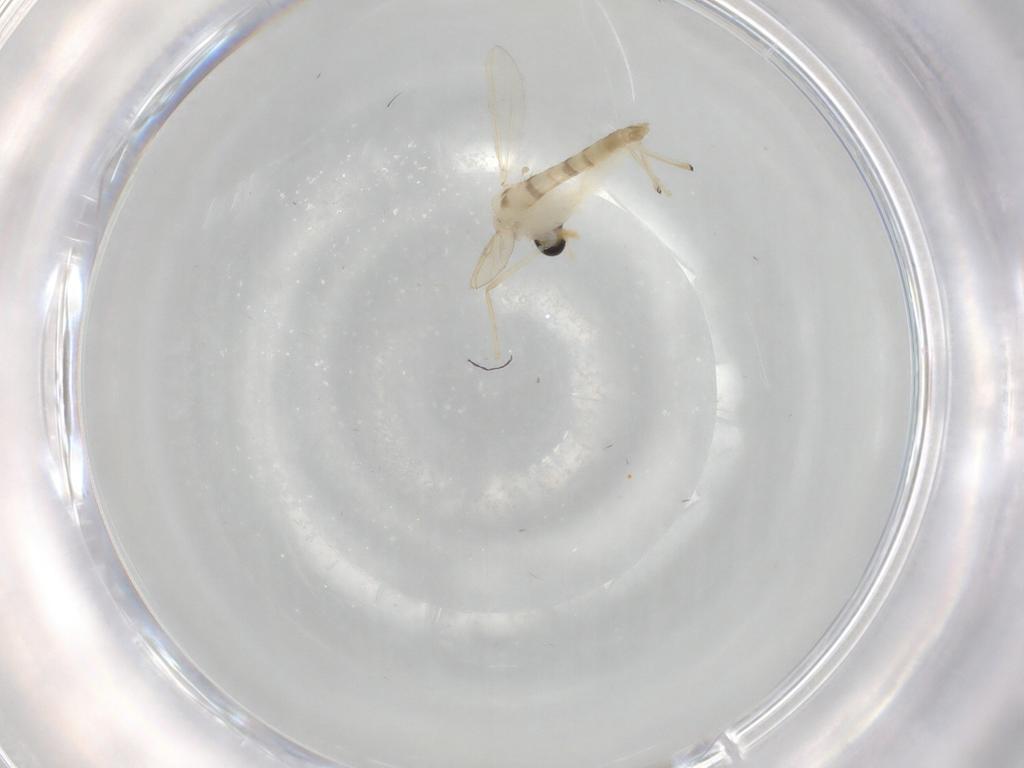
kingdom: Animalia
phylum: Arthropoda
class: Insecta
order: Diptera
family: Chironomidae
